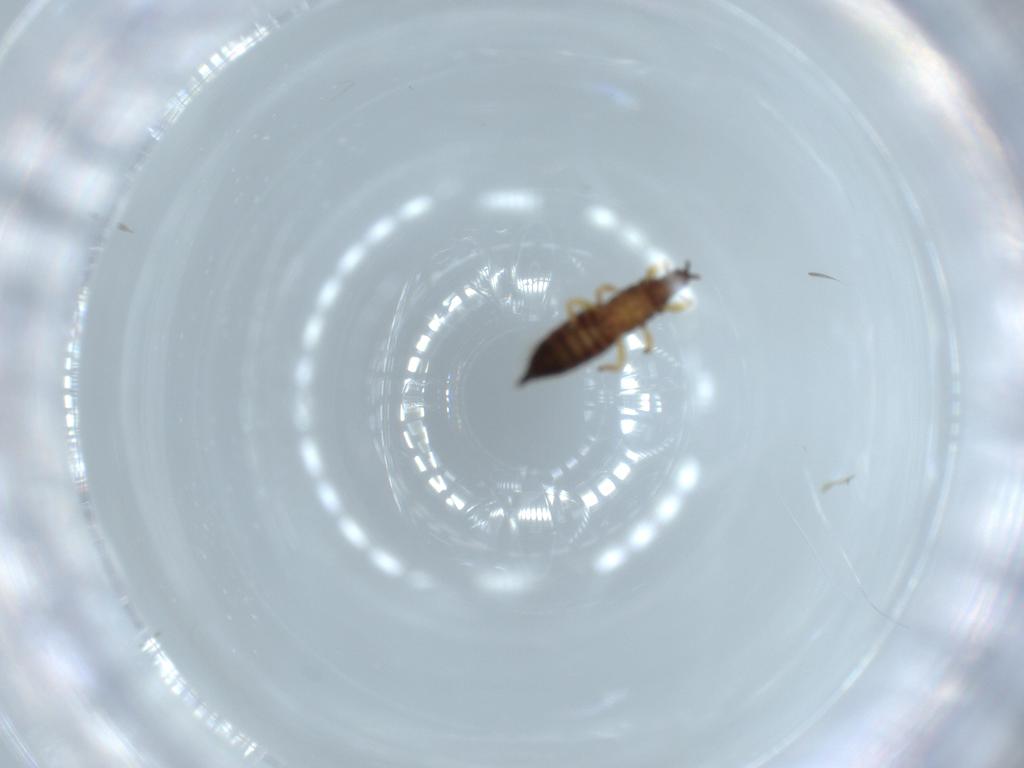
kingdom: Animalia
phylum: Arthropoda
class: Insecta
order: Thysanoptera
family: Phlaeothripidae
